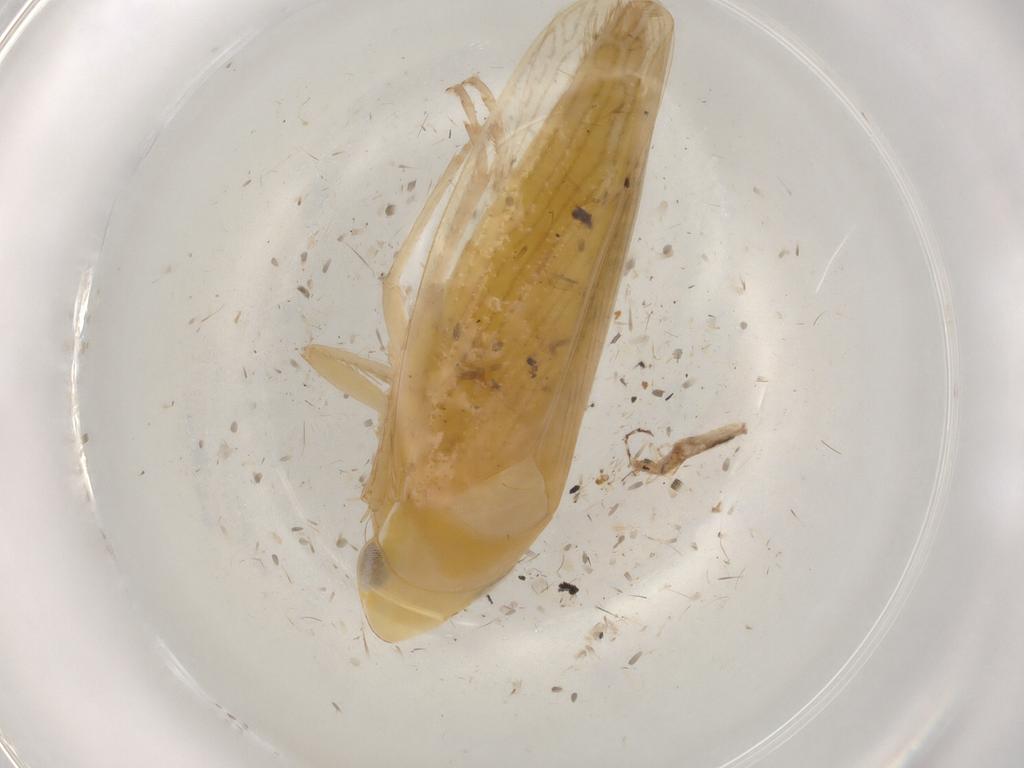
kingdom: Animalia
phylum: Arthropoda
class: Insecta
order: Hemiptera
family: Cicadellidae
